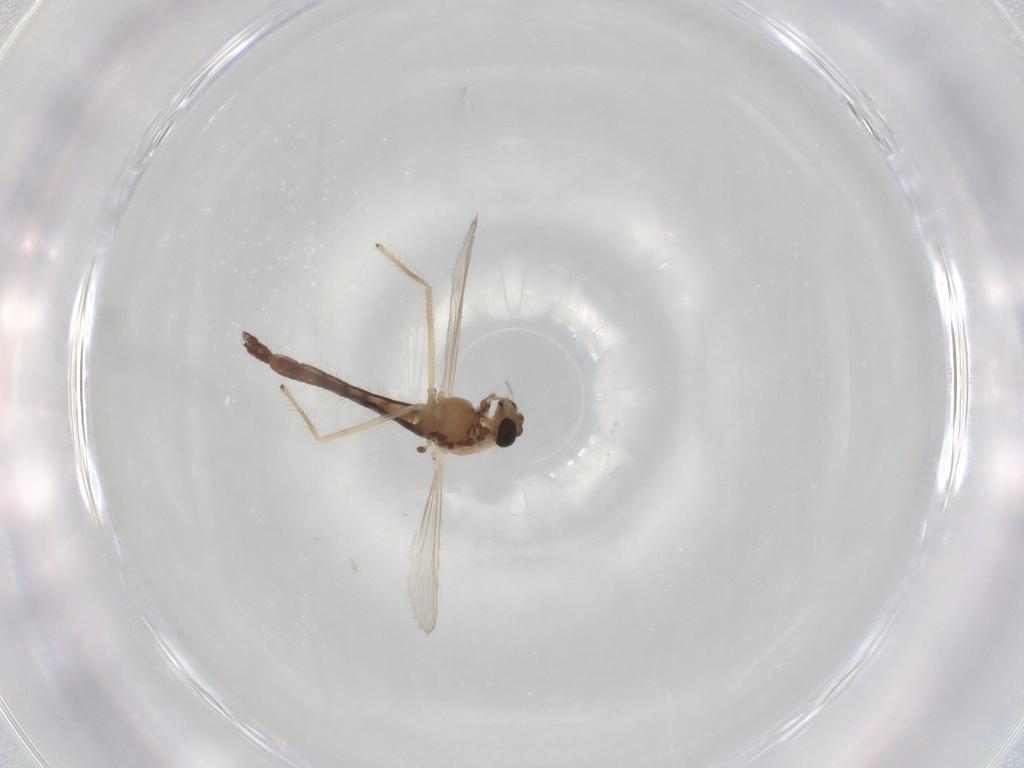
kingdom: Animalia
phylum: Arthropoda
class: Insecta
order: Diptera
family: Chironomidae
